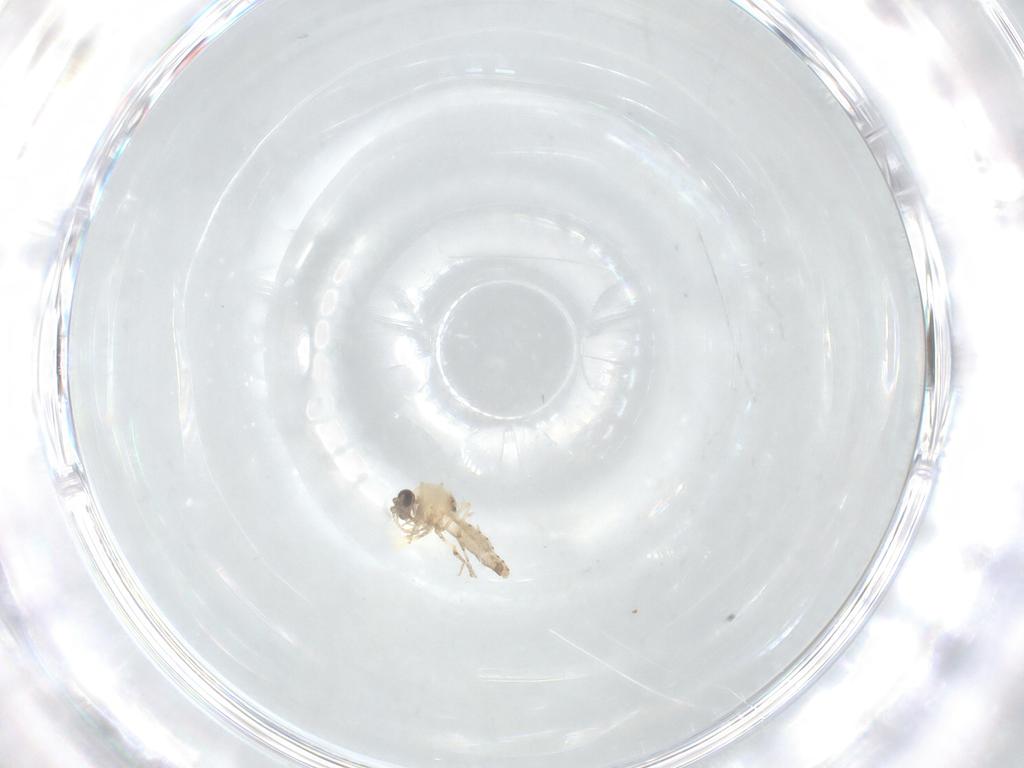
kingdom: Animalia
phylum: Arthropoda
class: Insecta
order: Diptera
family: Ceratopogonidae
